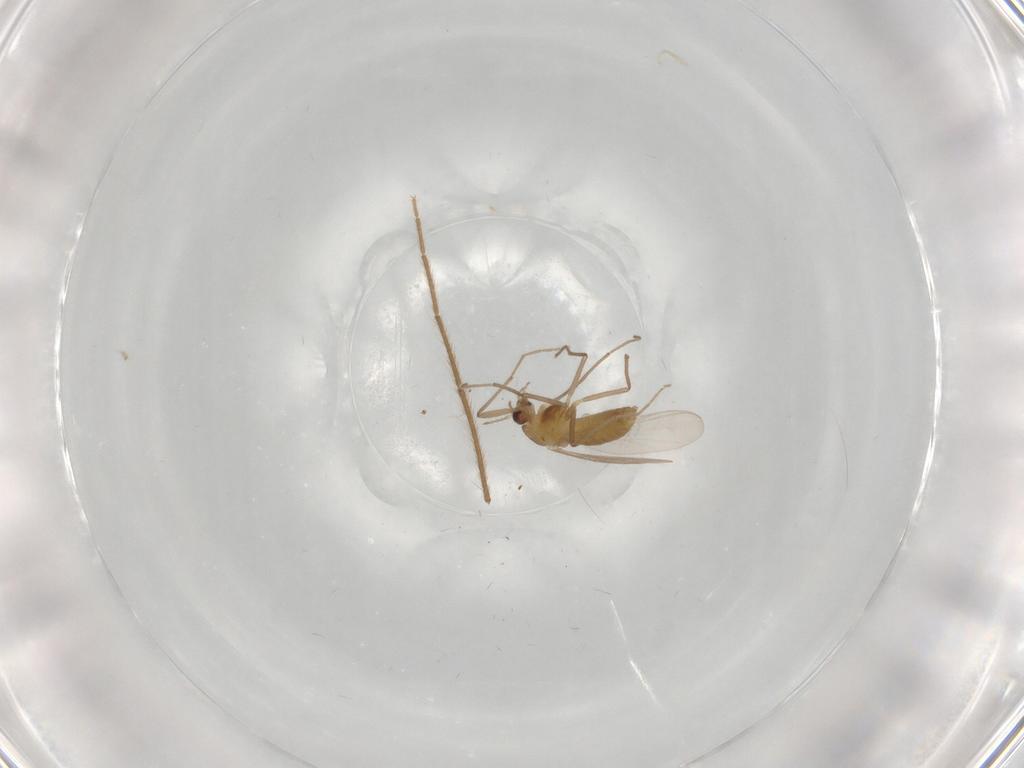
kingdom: Animalia
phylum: Arthropoda
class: Insecta
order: Diptera
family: Chironomidae
